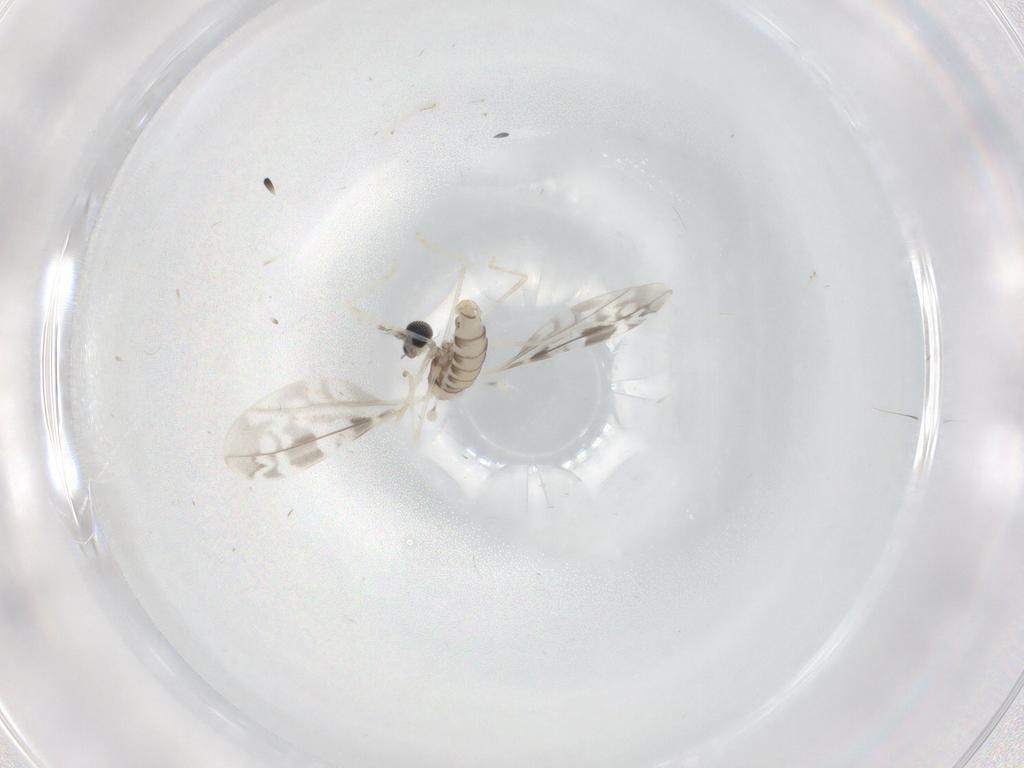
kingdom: Animalia
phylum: Arthropoda
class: Insecta
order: Diptera
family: Cecidomyiidae
